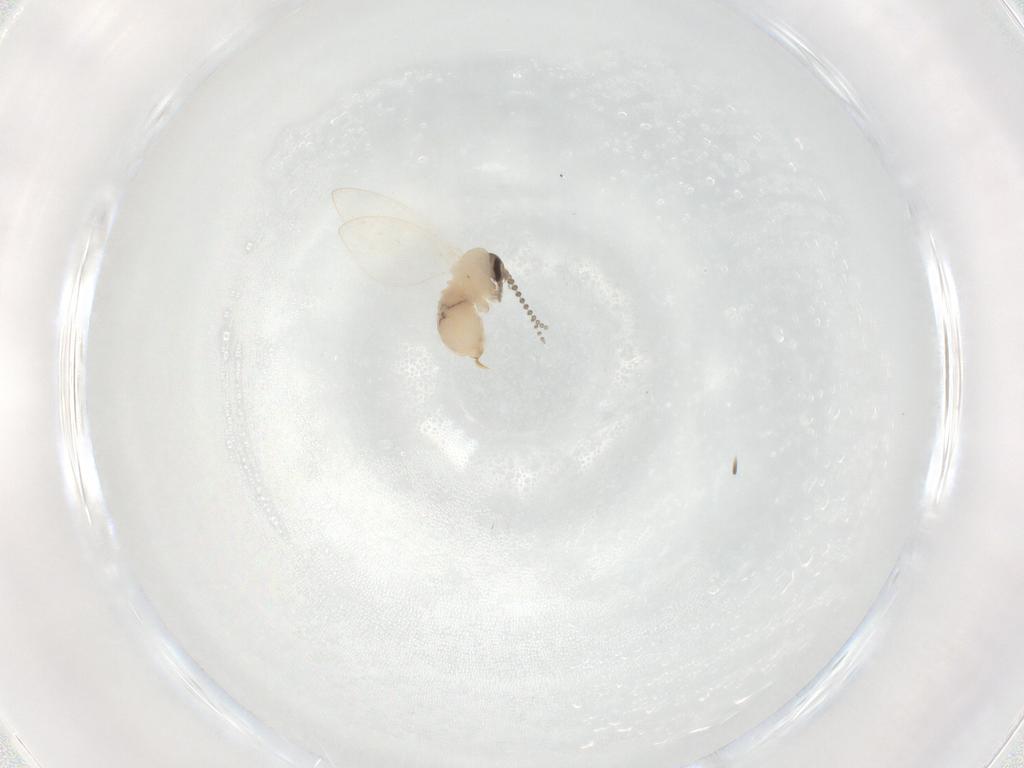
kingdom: Animalia
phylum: Arthropoda
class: Insecta
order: Diptera
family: Psychodidae
